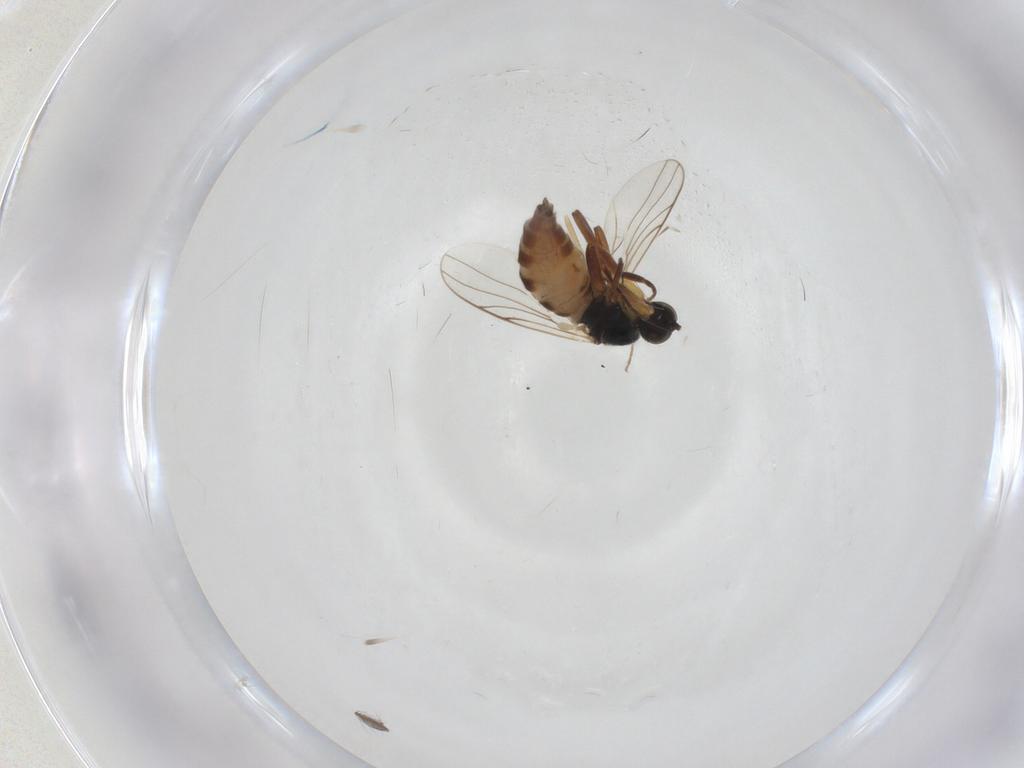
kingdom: Animalia
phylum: Arthropoda
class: Insecta
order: Diptera
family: Hybotidae
